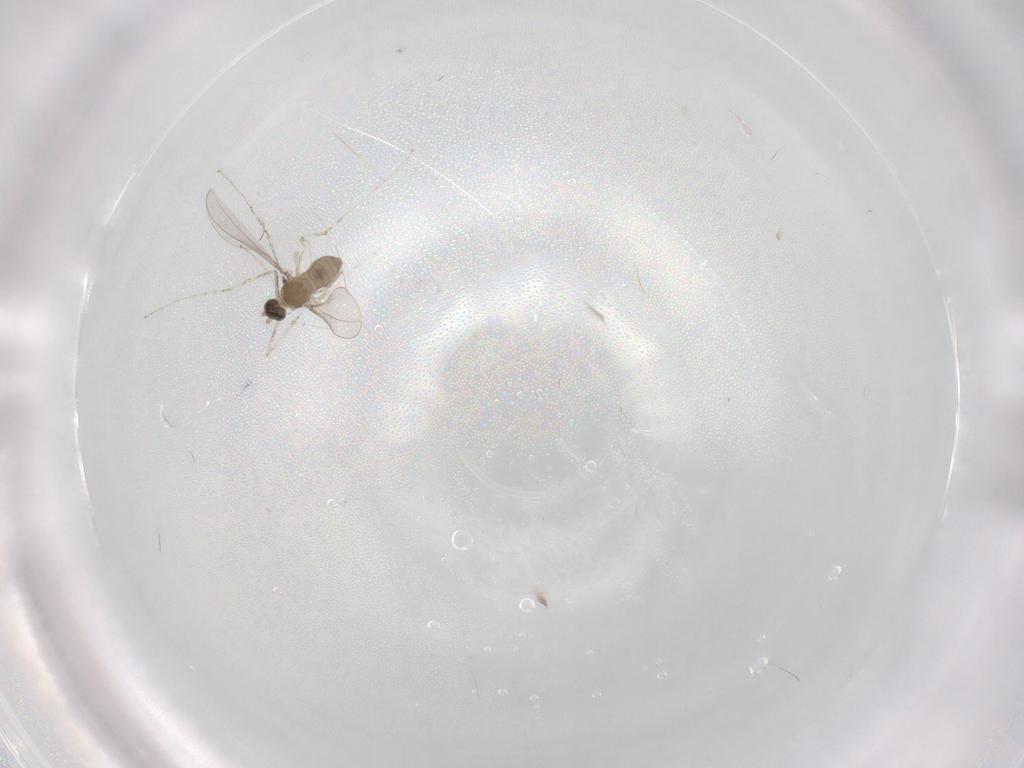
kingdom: Animalia
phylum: Arthropoda
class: Insecta
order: Diptera
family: Cecidomyiidae
